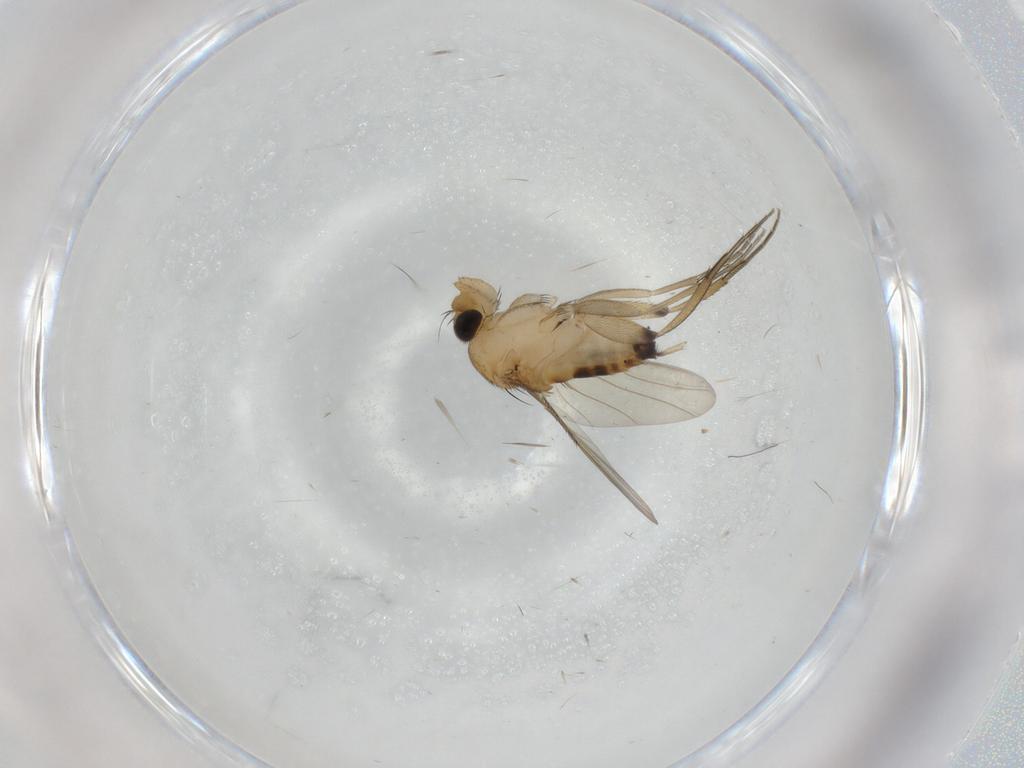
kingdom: Animalia
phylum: Arthropoda
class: Insecta
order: Diptera
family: Phoridae
